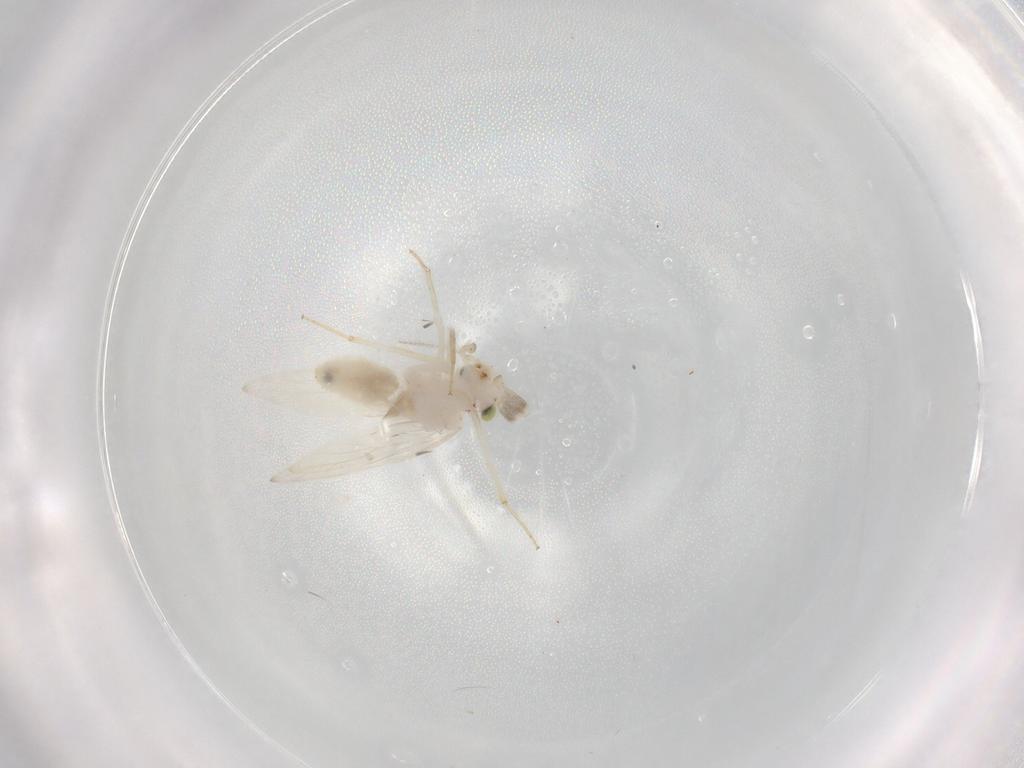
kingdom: Animalia
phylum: Arthropoda
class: Insecta
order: Psocodea
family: Lepidopsocidae
